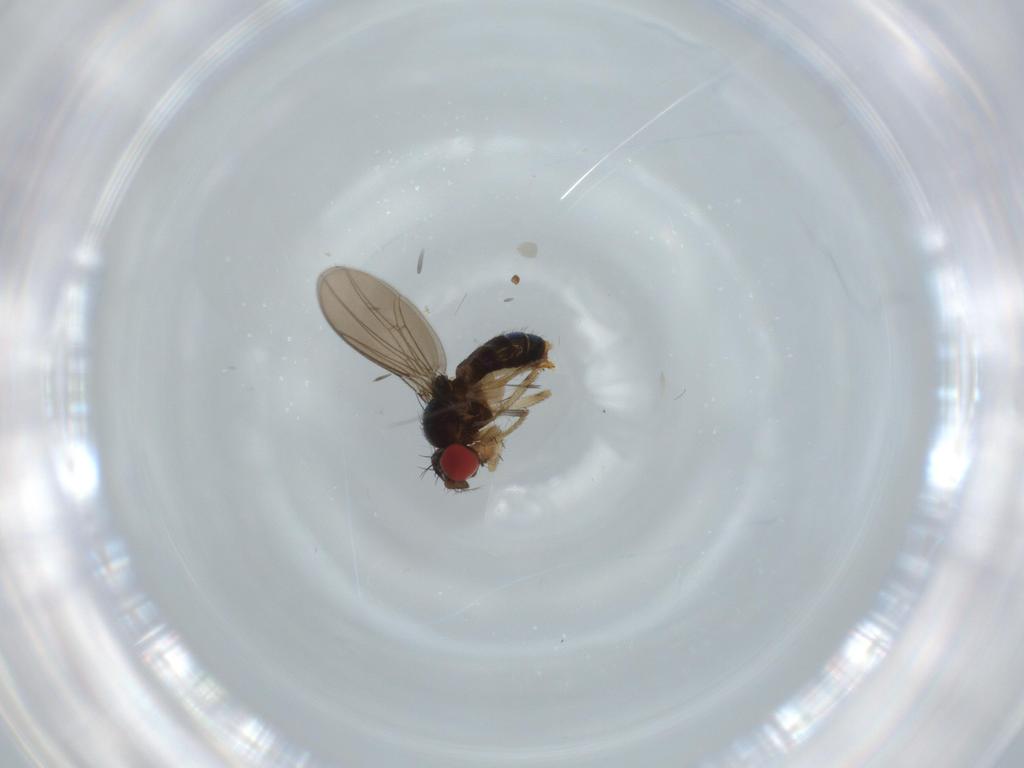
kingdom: Animalia
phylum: Arthropoda
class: Insecta
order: Diptera
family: Drosophilidae
